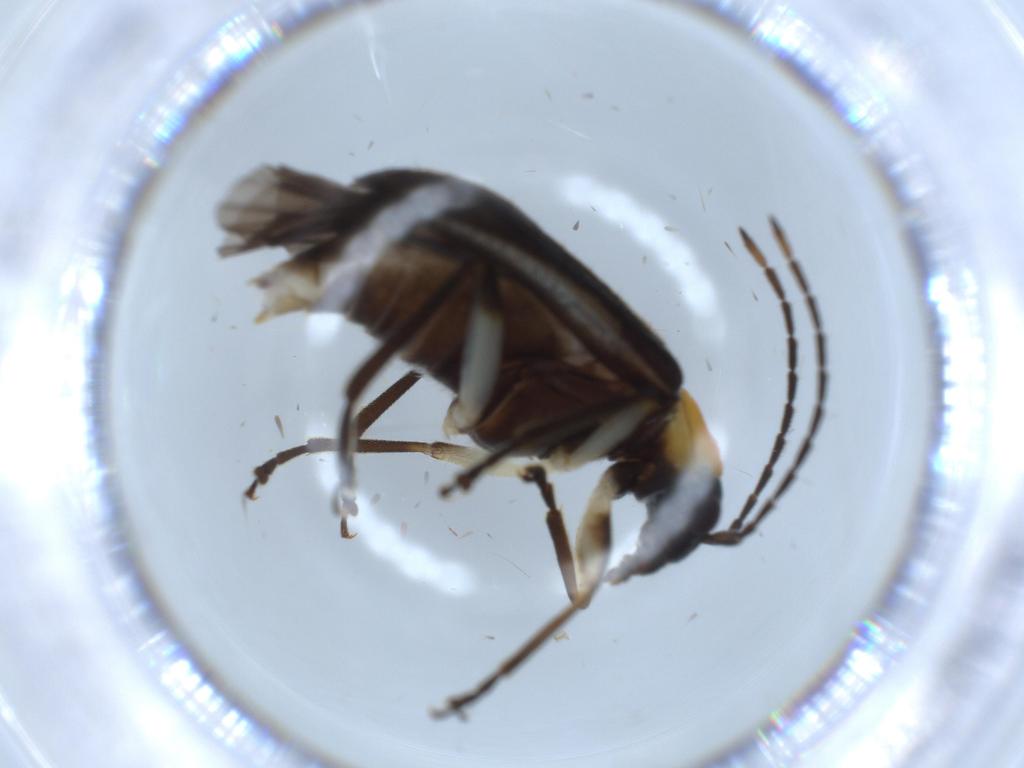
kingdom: Animalia
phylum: Arthropoda
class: Insecta
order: Coleoptera
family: Curculionidae
